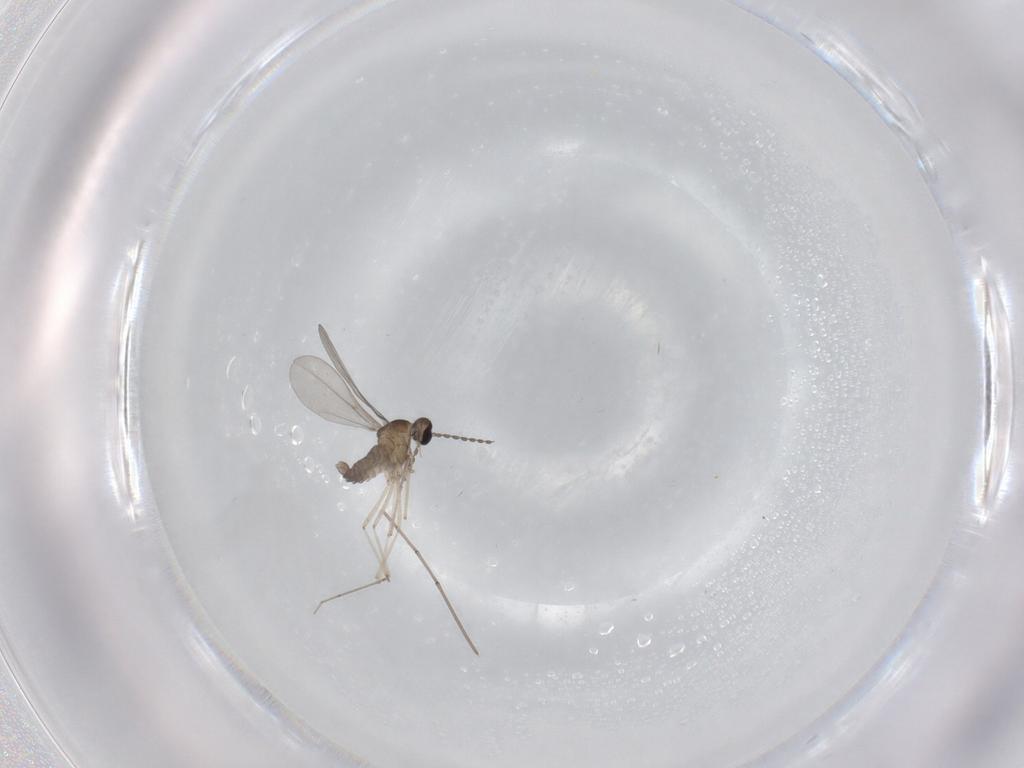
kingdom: Animalia
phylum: Arthropoda
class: Insecta
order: Diptera
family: Cecidomyiidae
